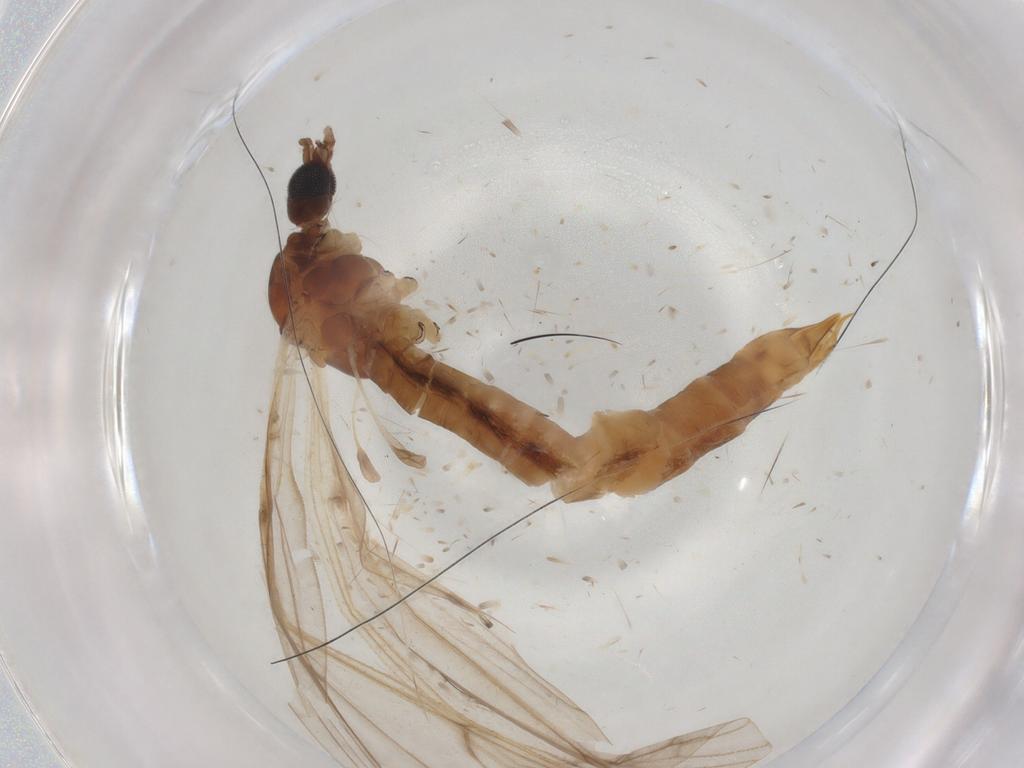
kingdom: Animalia
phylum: Arthropoda
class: Insecta
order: Diptera
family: Limoniidae
